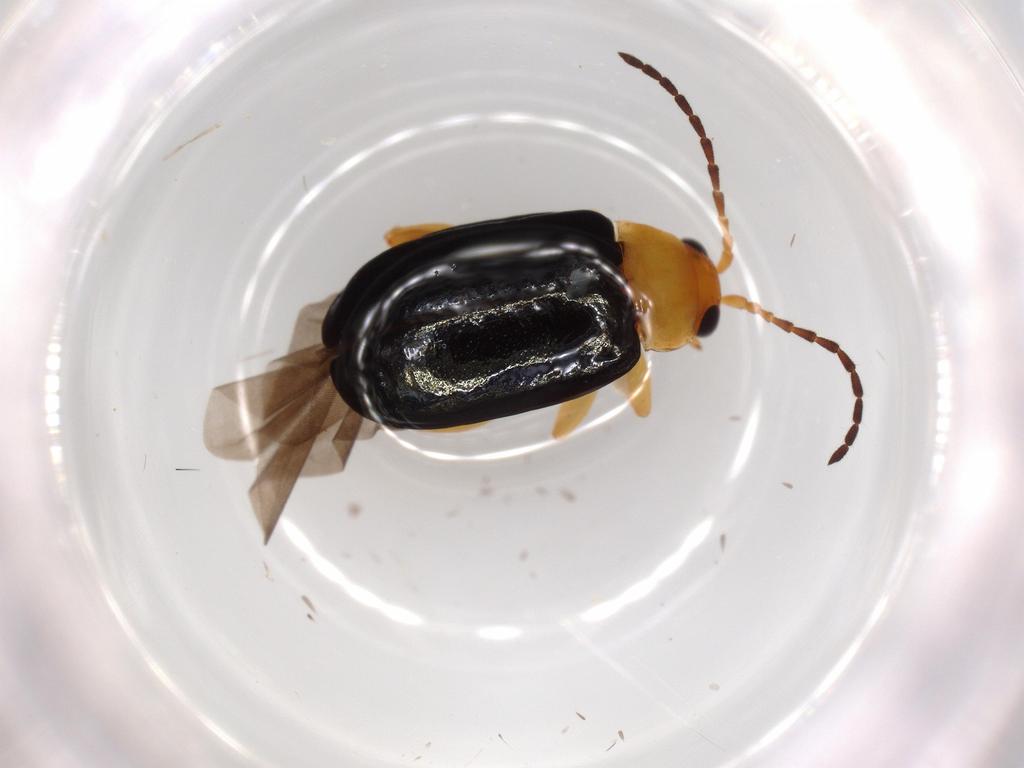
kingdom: Animalia
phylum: Arthropoda
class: Insecta
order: Coleoptera
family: Chrysomelidae
